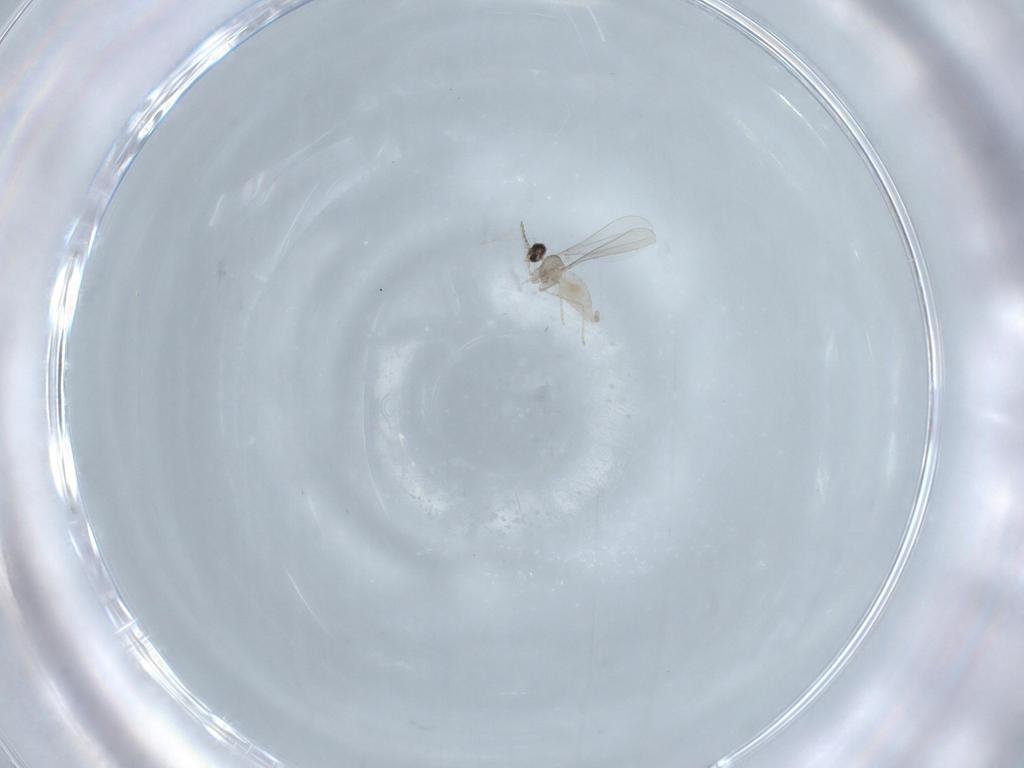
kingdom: Animalia
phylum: Arthropoda
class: Insecta
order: Diptera
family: Cecidomyiidae
